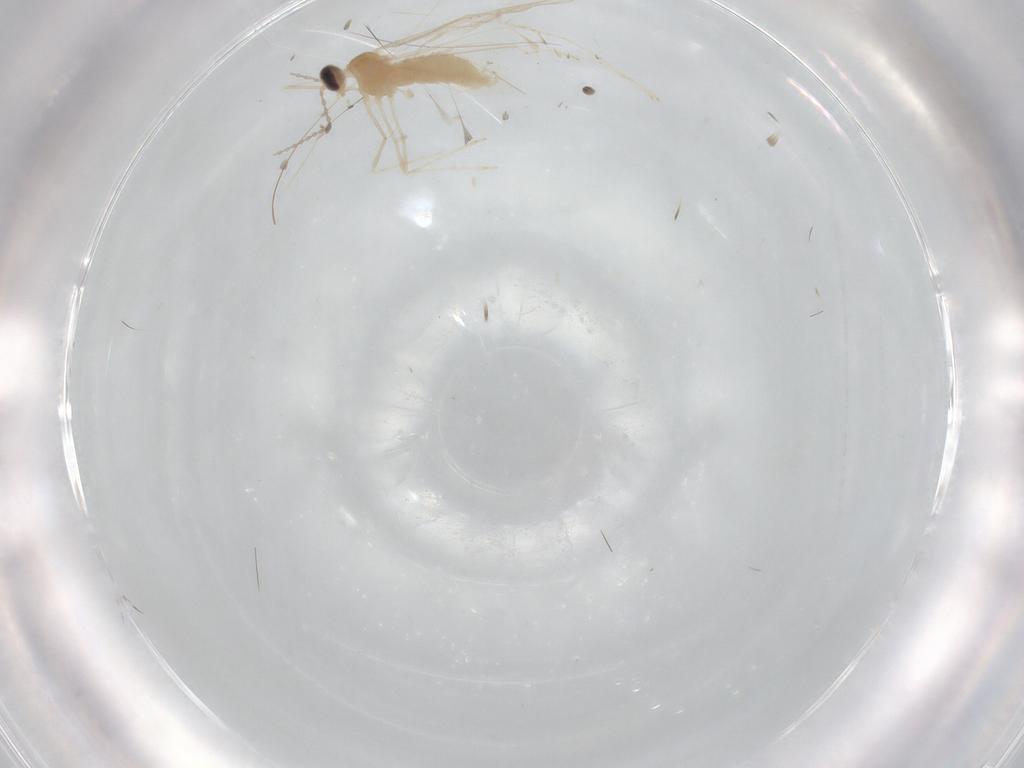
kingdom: Animalia
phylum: Arthropoda
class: Insecta
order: Diptera
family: Cecidomyiidae
